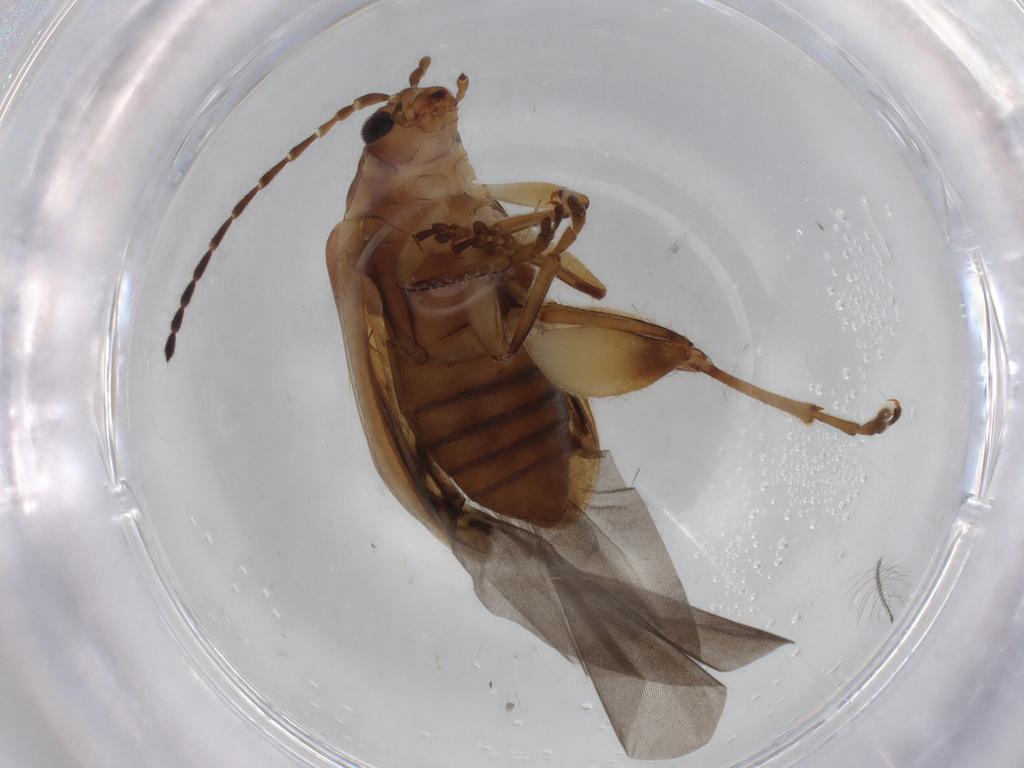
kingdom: Animalia
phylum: Arthropoda
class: Insecta
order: Coleoptera
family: Chrysomelidae
